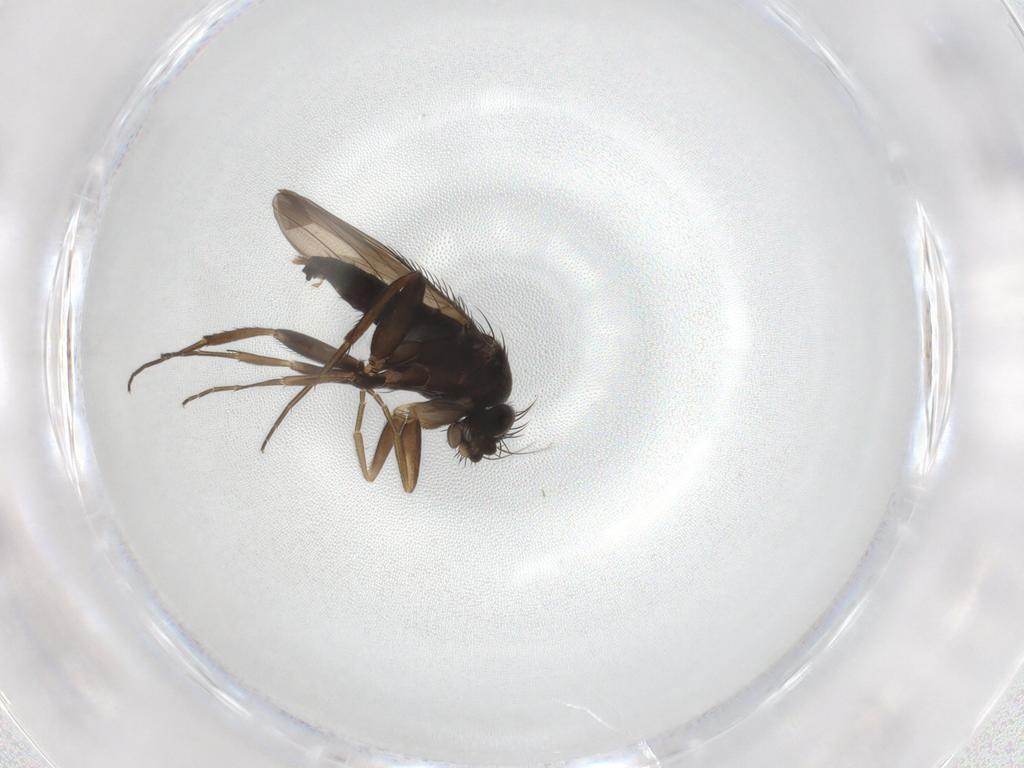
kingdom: Animalia
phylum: Arthropoda
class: Insecta
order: Diptera
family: Phoridae
